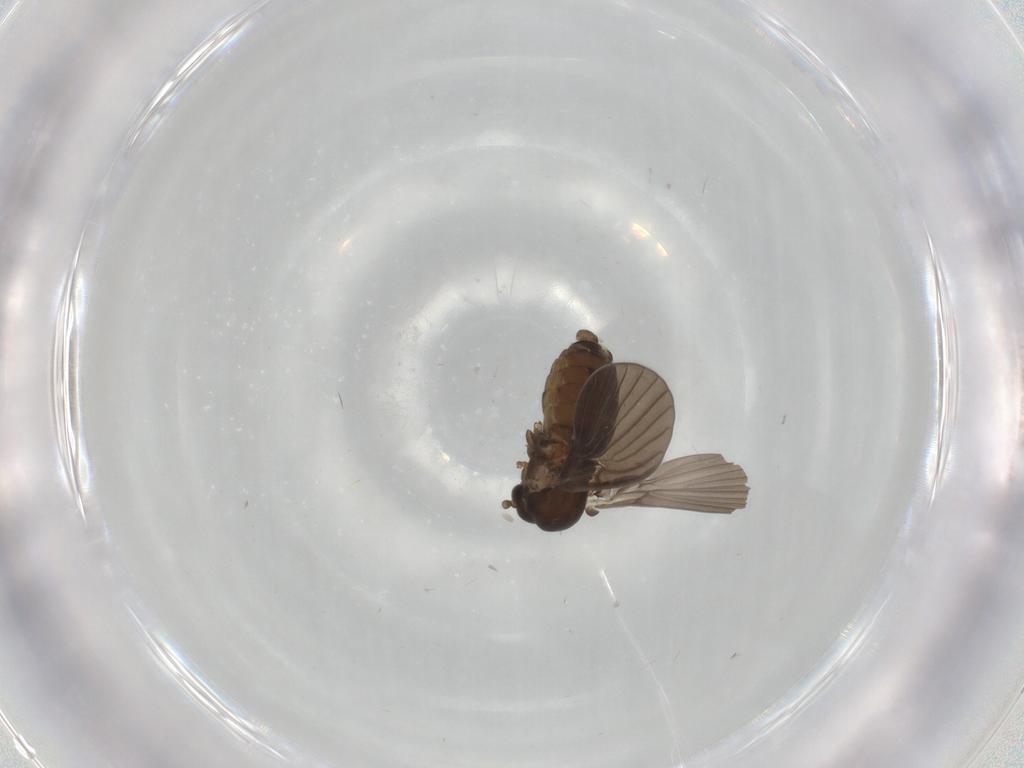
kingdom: Animalia
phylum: Arthropoda
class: Insecta
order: Diptera
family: Psychodidae
